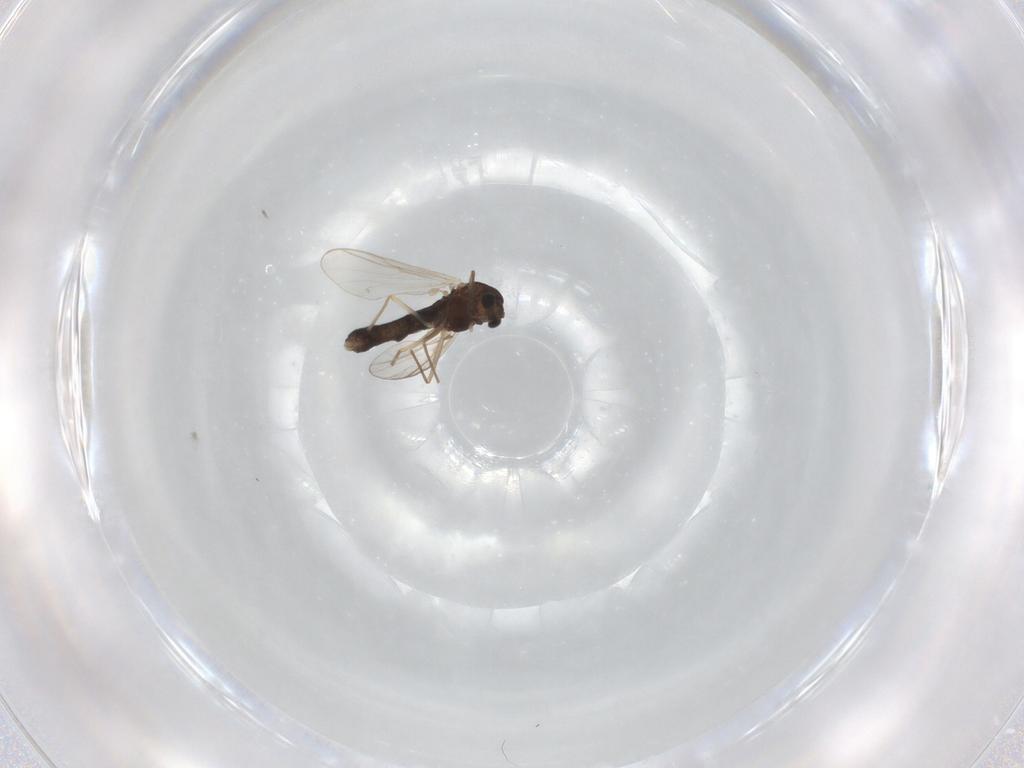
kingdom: Animalia
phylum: Arthropoda
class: Insecta
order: Diptera
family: Chironomidae
